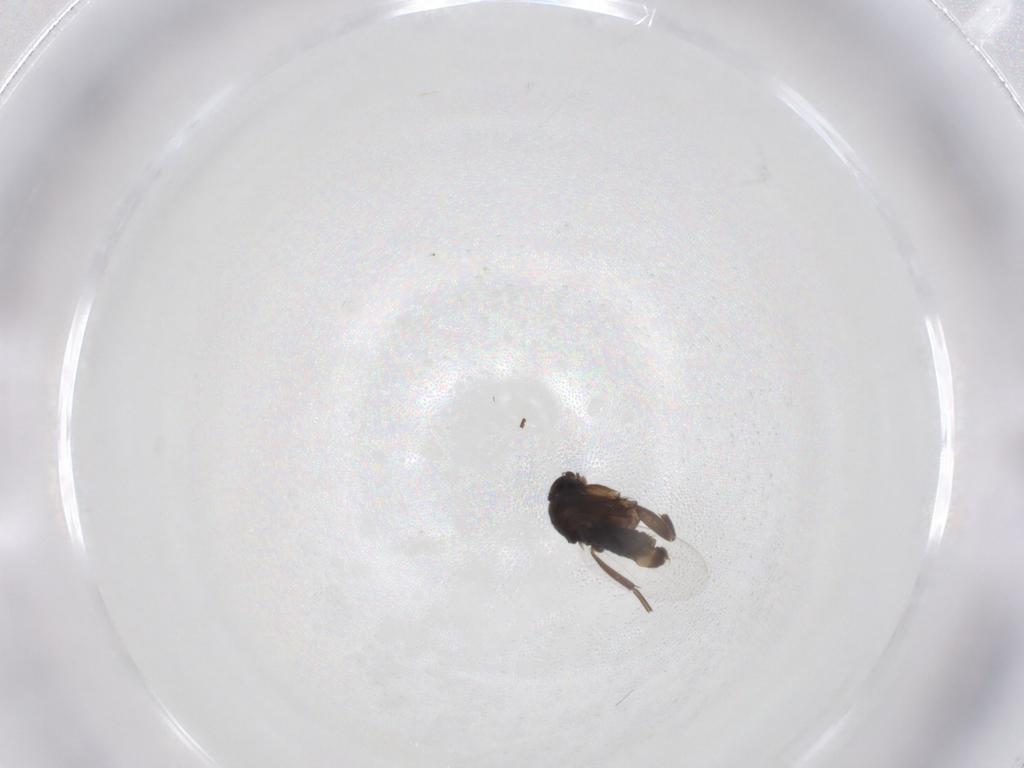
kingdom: Animalia
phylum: Arthropoda
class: Insecta
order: Diptera
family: Phoridae
